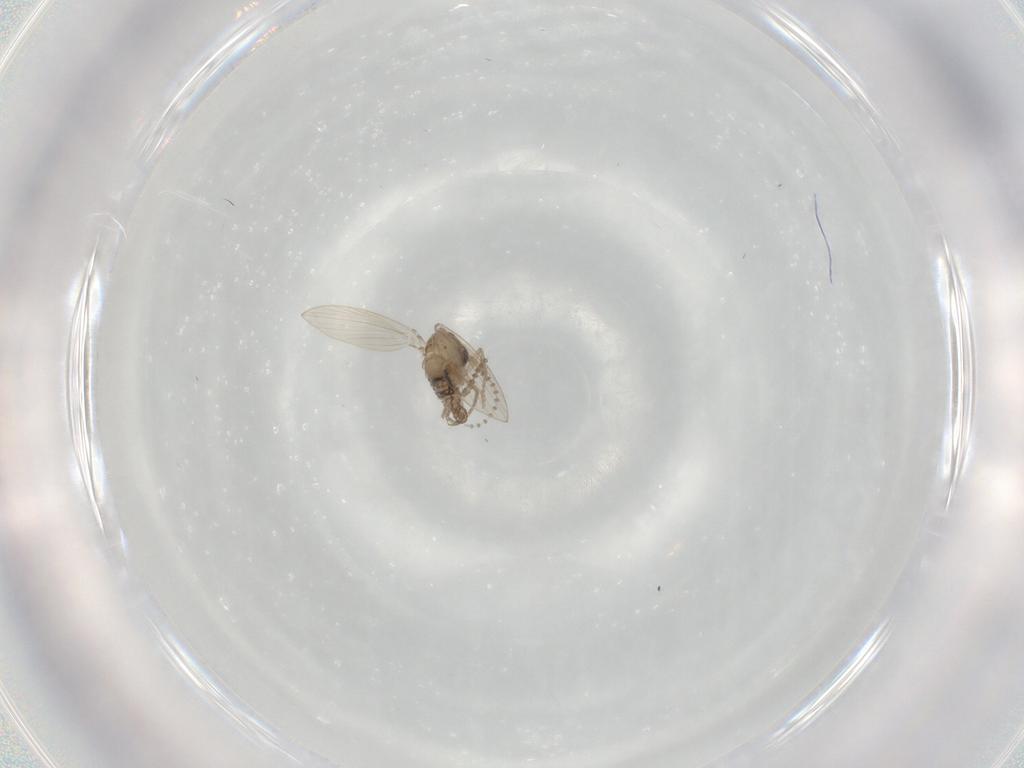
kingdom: Animalia
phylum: Arthropoda
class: Insecta
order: Diptera
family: Psychodidae
